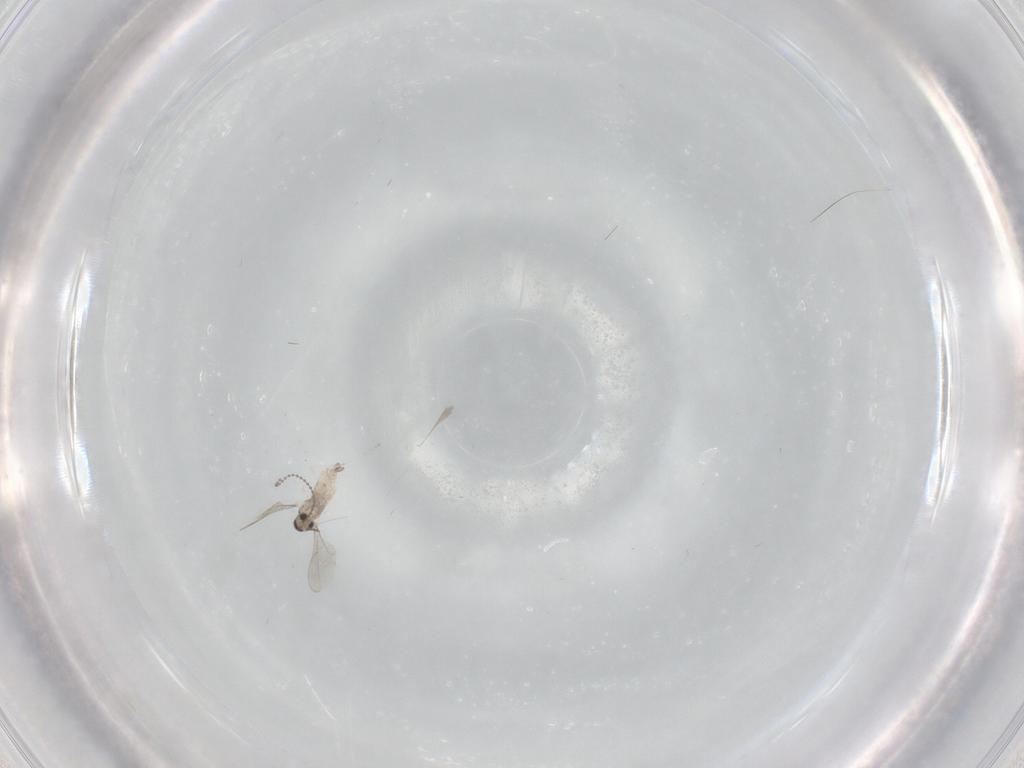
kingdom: Animalia
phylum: Arthropoda
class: Insecta
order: Diptera
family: Cecidomyiidae
